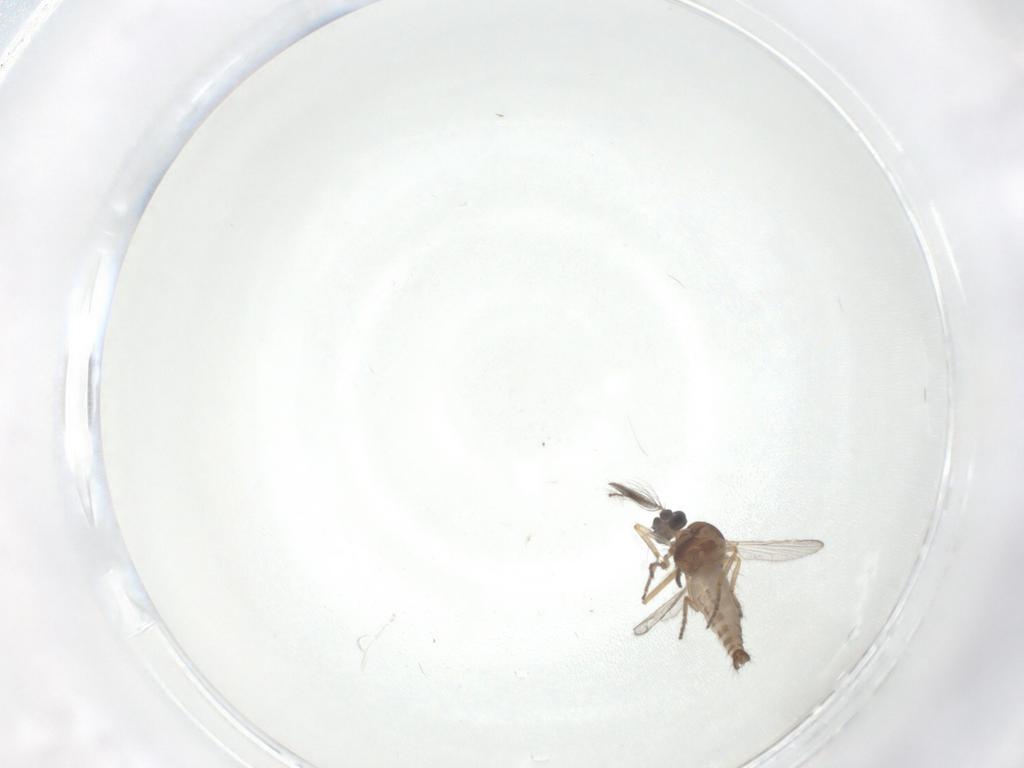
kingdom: Animalia
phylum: Arthropoda
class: Insecta
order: Diptera
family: Ceratopogonidae
